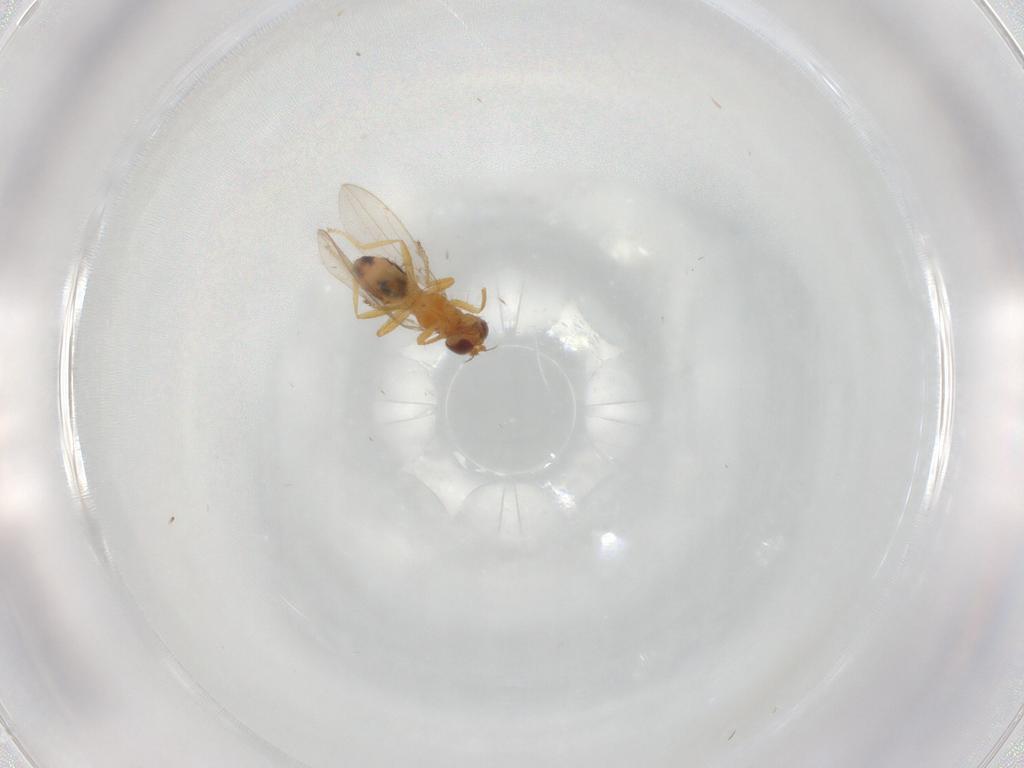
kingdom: Animalia
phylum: Arthropoda
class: Insecta
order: Diptera
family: Periscelididae
